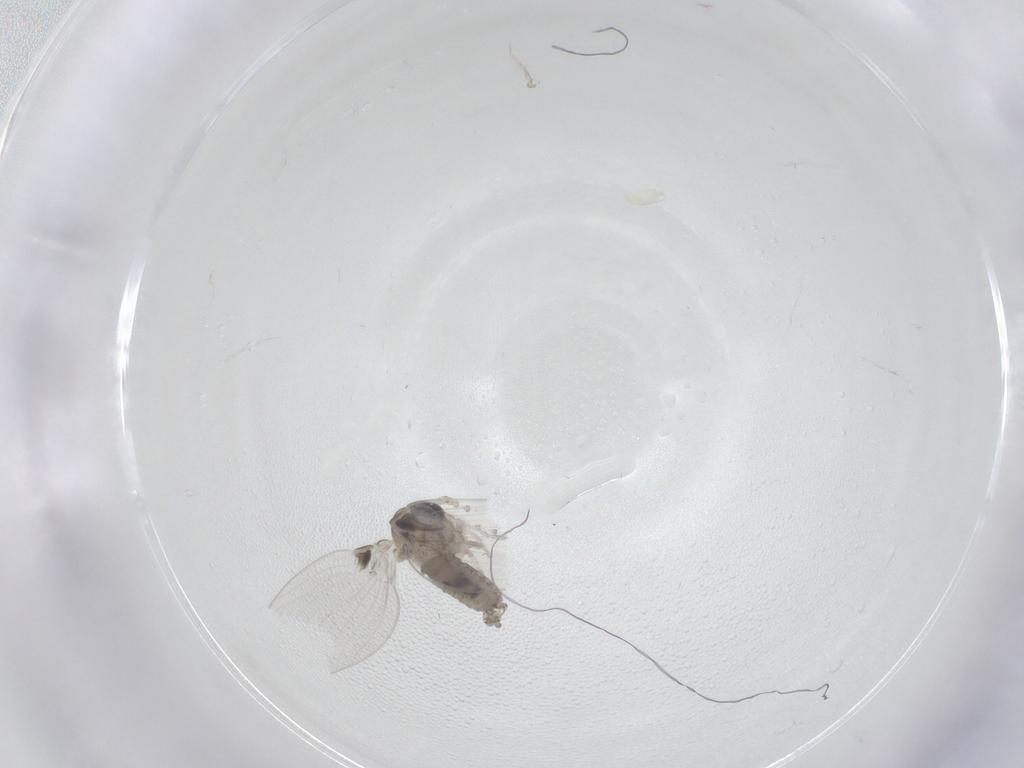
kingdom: Animalia
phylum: Arthropoda
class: Insecta
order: Diptera
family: Psychodidae
